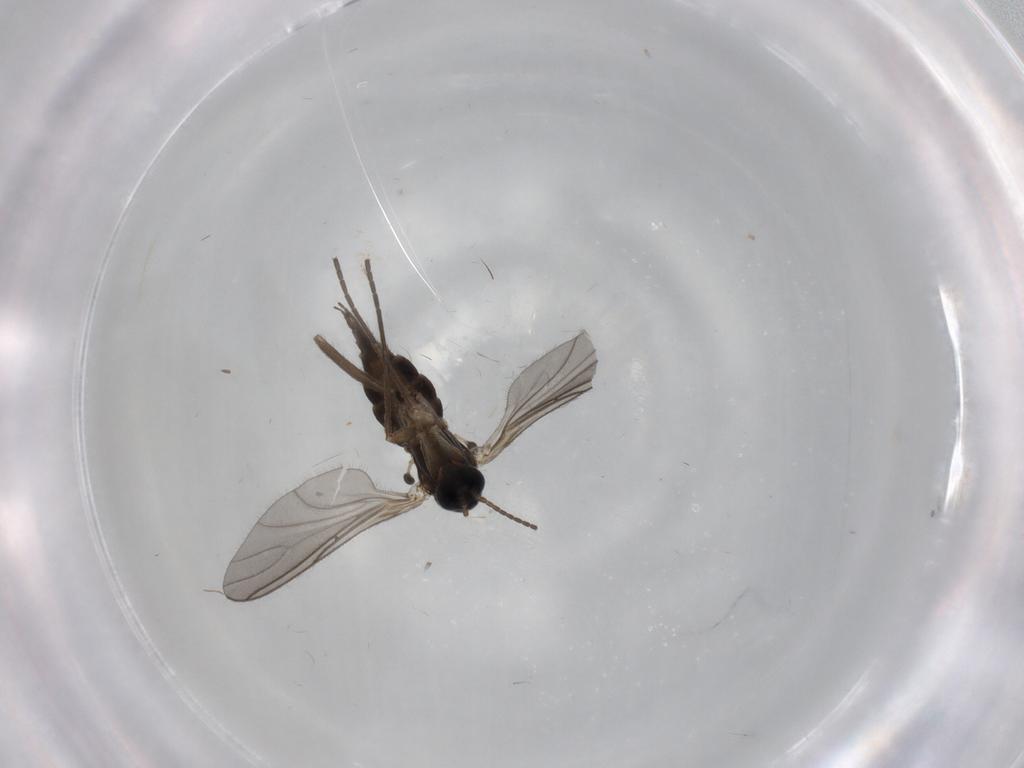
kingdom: Animalia
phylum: Arthropoda
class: Insecta
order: Diptera
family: Sciaridae
